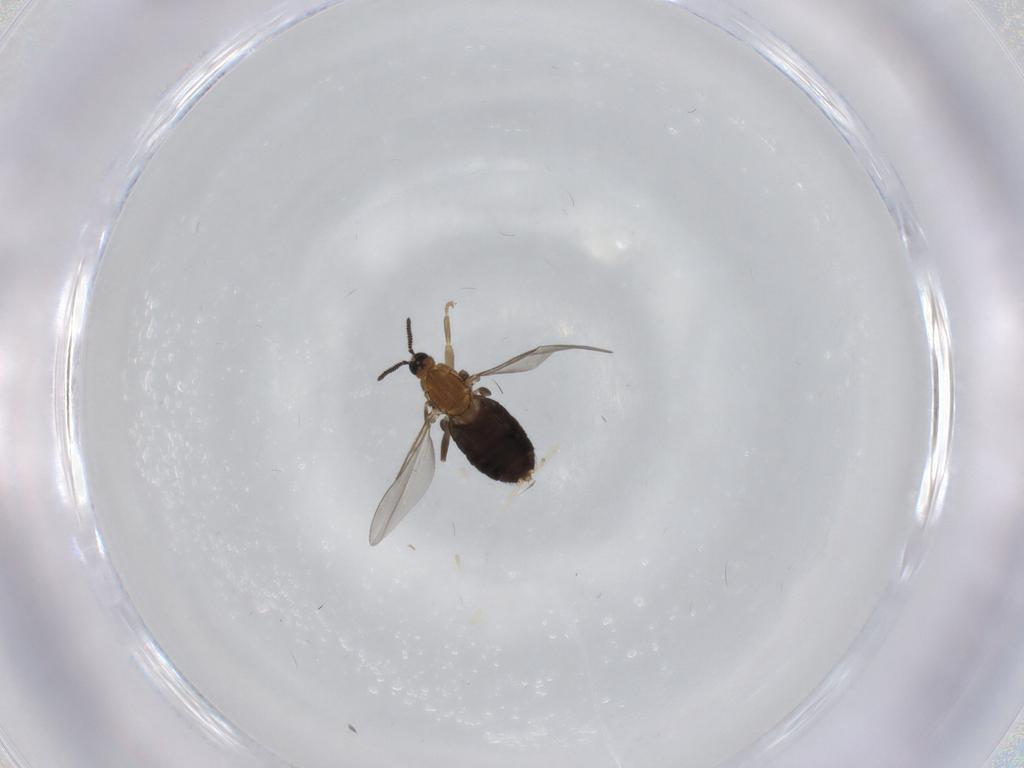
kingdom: Animalia
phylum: Arthropoda
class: Insecta
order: Diptera
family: Scatopsidae
